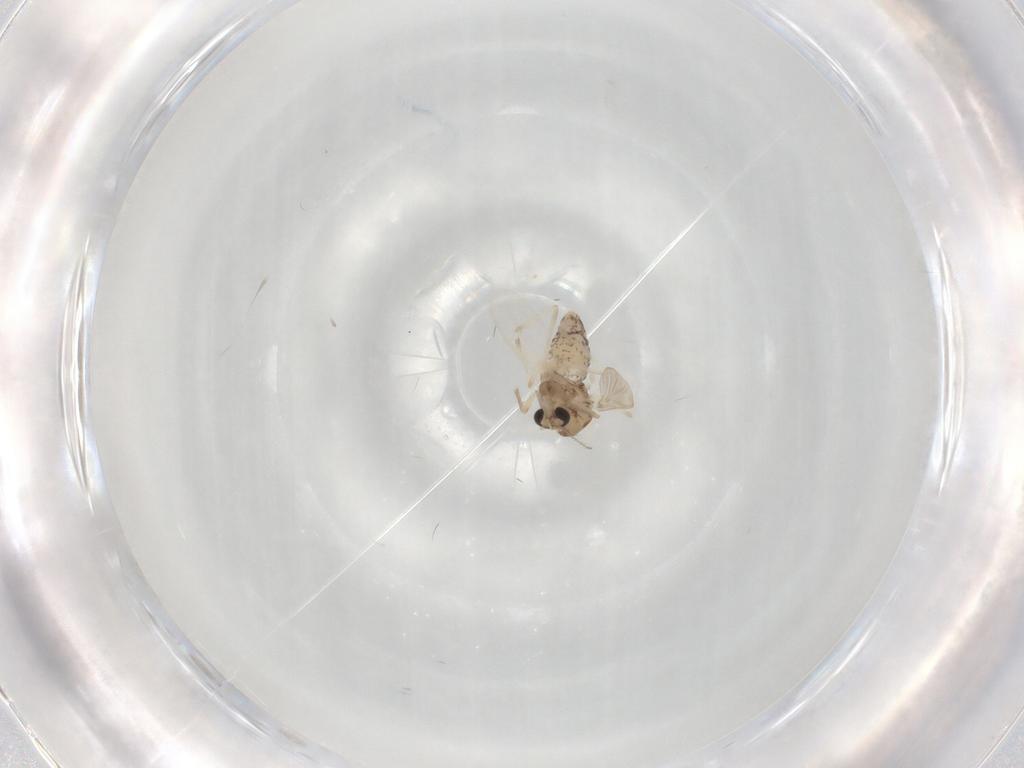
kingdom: Animalia
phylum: Arthropoda
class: Insecta
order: Diptera
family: Chironomidae
